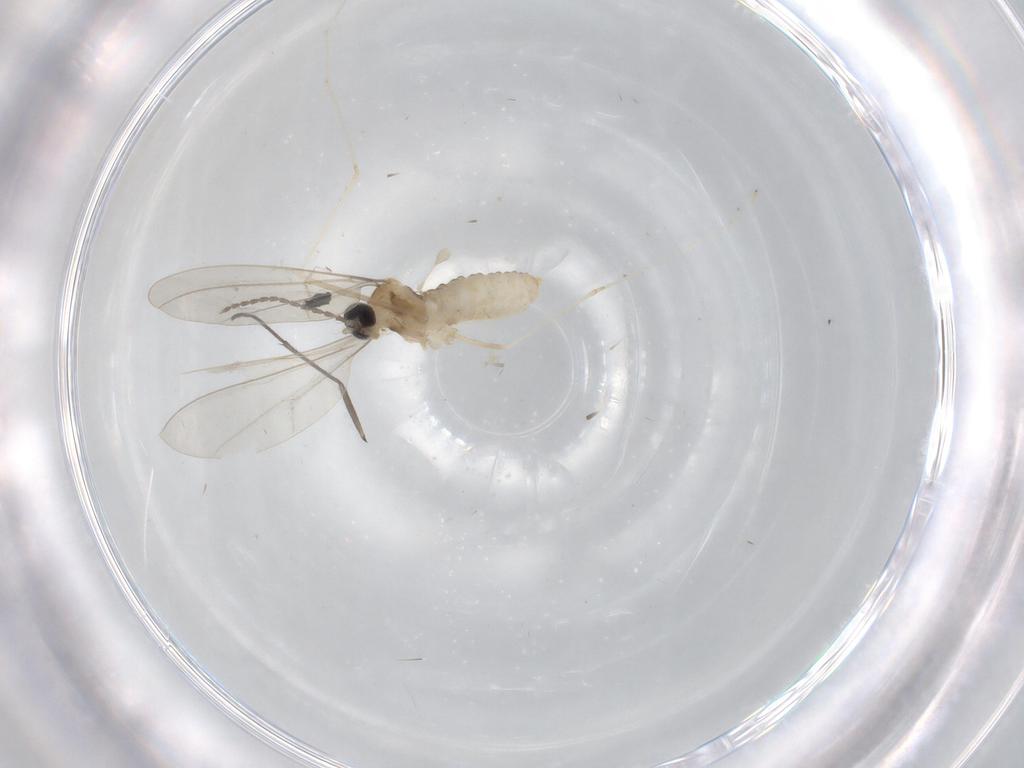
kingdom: Animalia
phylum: Arthropoda
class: Insecta
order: Diptera
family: Cecidomyiidae
